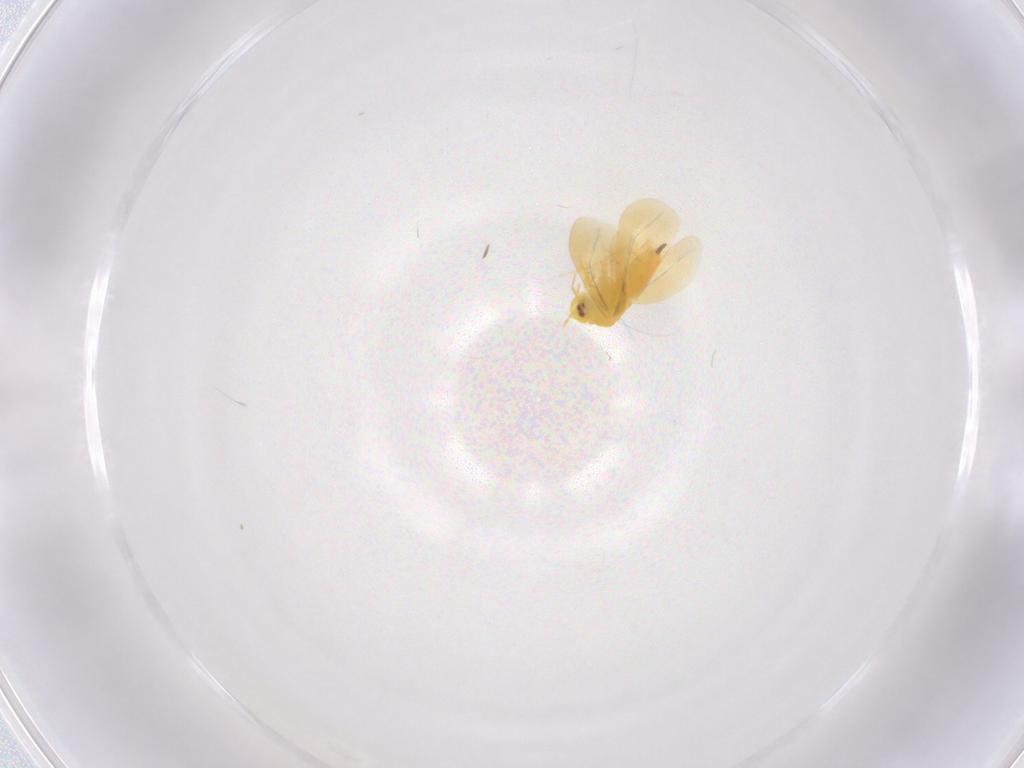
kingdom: Animalia
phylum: Arthropoda
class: Insecta
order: Hemiptera
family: Aleyrodidae
